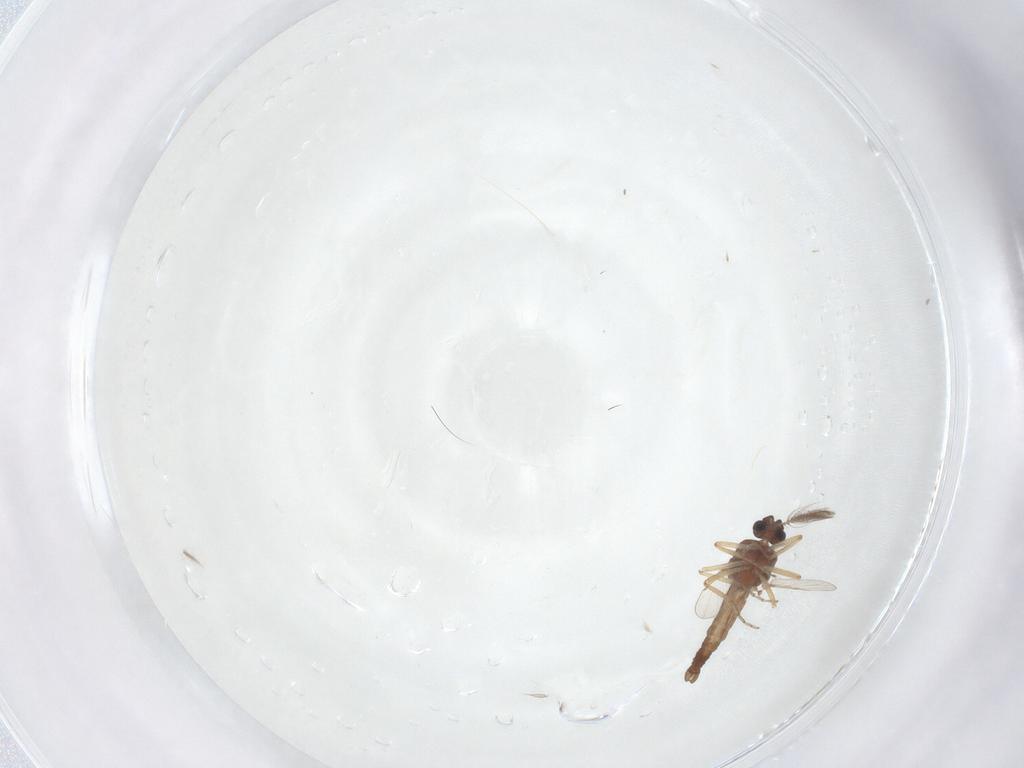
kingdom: Animalia
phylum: Arthropoda
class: Insecta
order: Diptera
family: Ceratopogonidae
